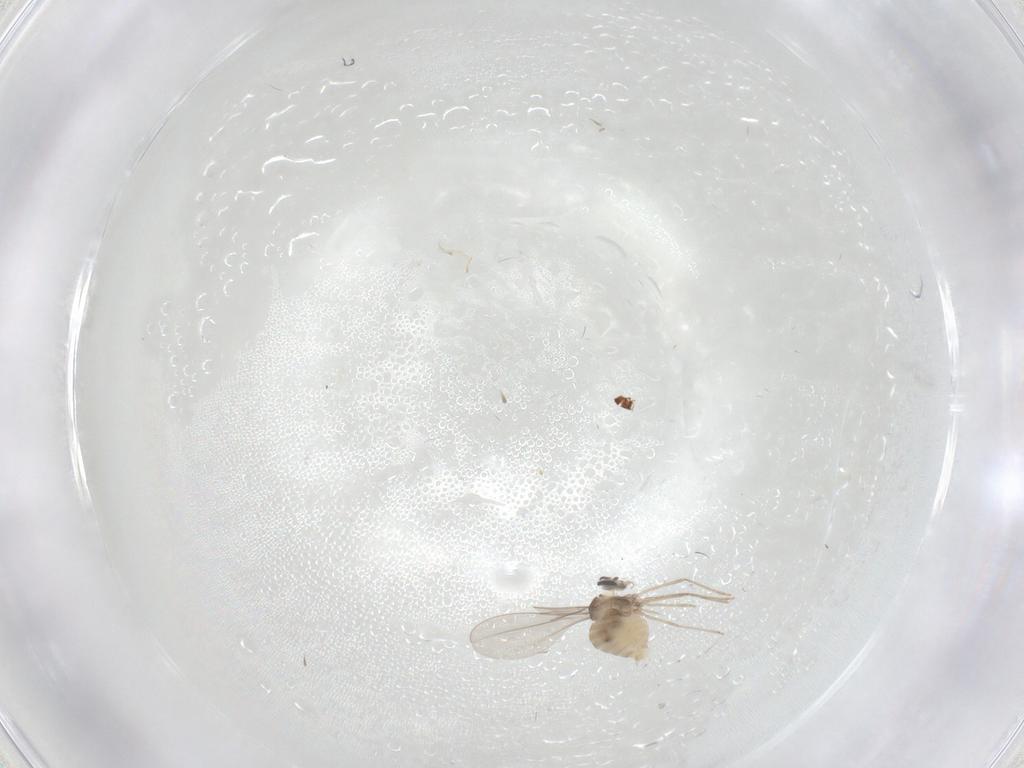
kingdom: Animalia
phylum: Arthropoda
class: Insecta
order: Diptera
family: Cecidomyiidae
